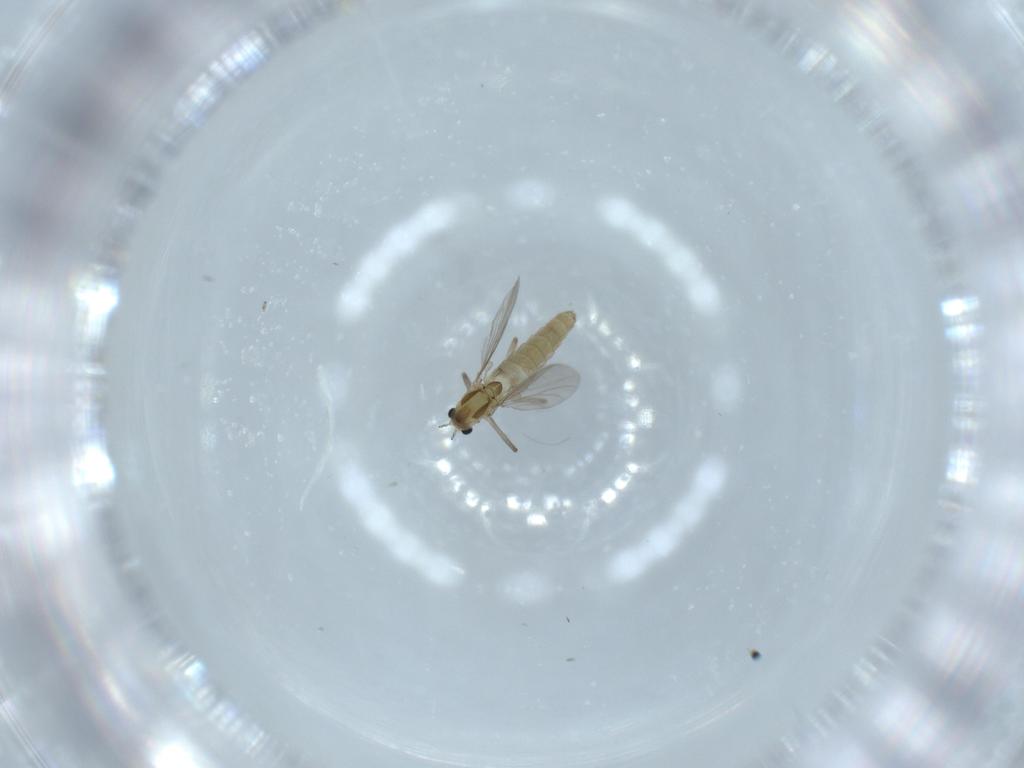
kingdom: Animalia
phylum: Arthropoda
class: Insecta
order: Diptera
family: Chironomidae
